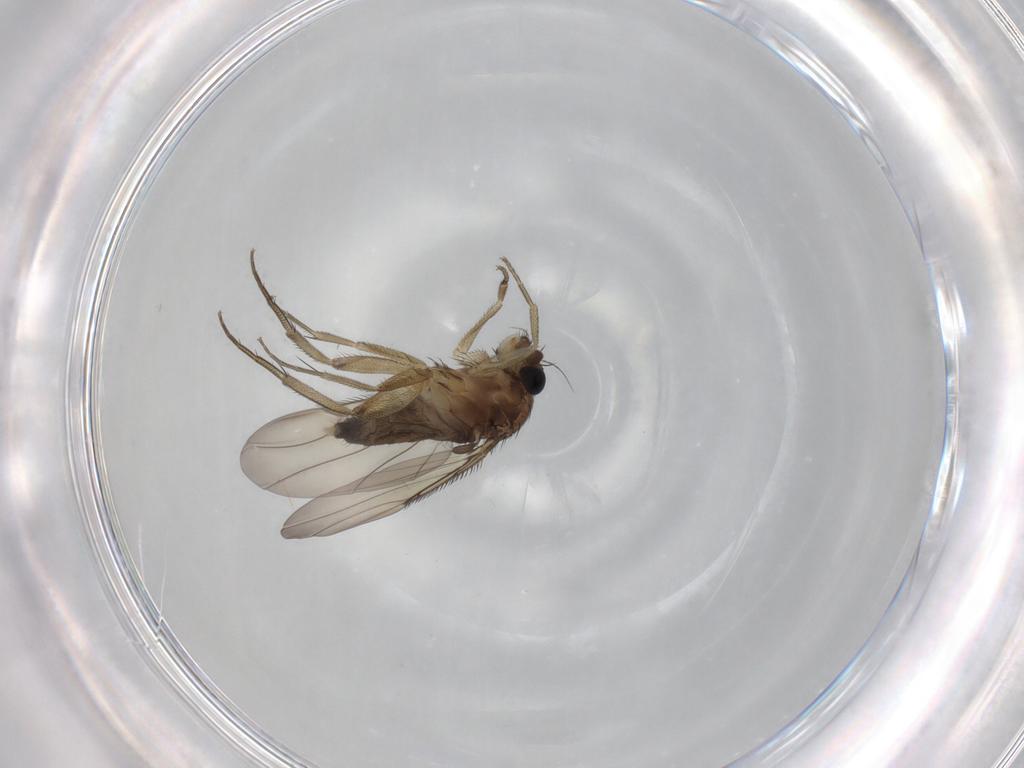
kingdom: Animalia
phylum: Arthropoda
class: Insecta
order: Diptera
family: Phoridae
